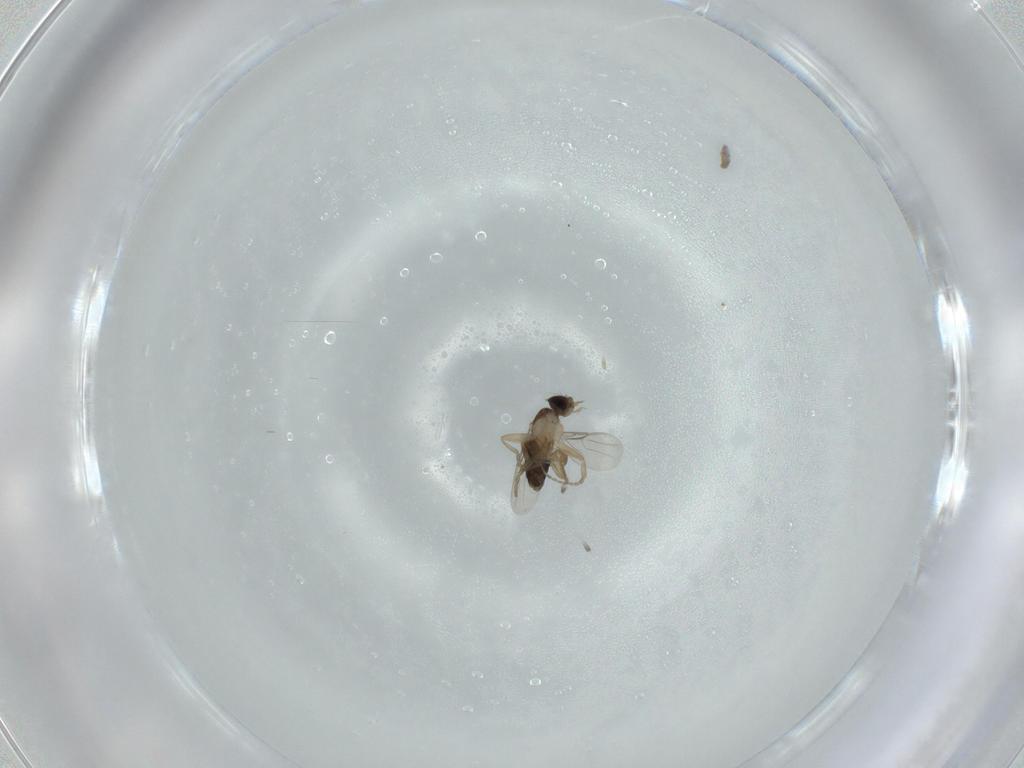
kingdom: Animalia
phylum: Arthropoda
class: Insecta
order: Diptera
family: Phoridae
